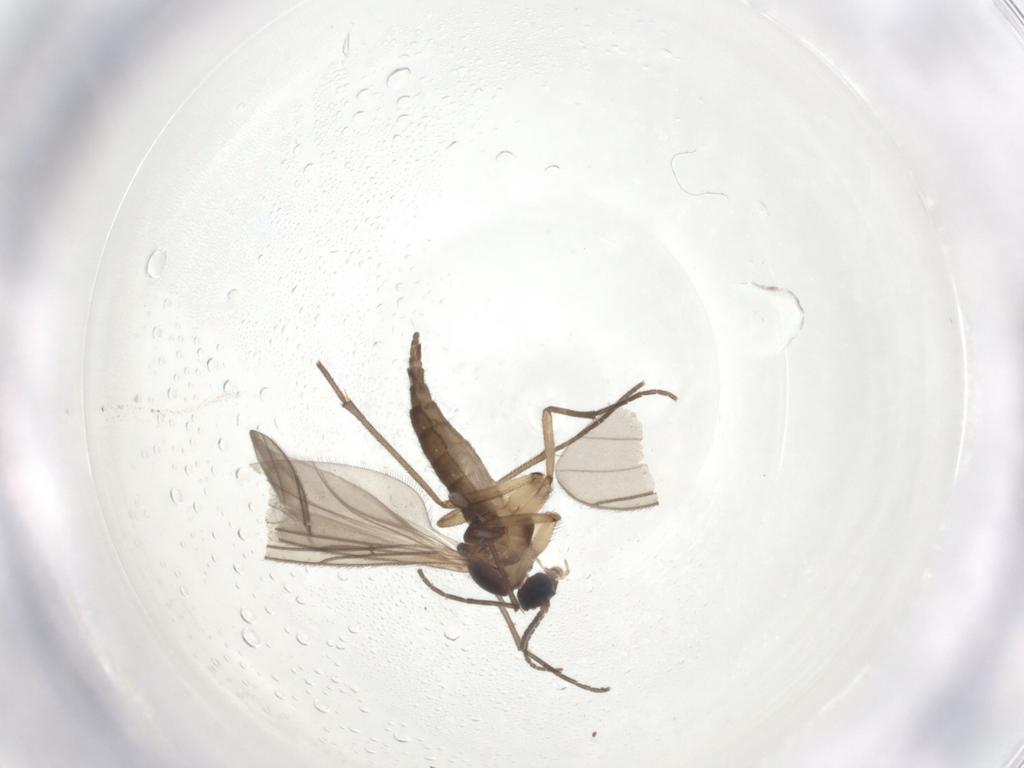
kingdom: Animalia
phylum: Arthropoda
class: Insecta
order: Diptera
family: Sciaridae
